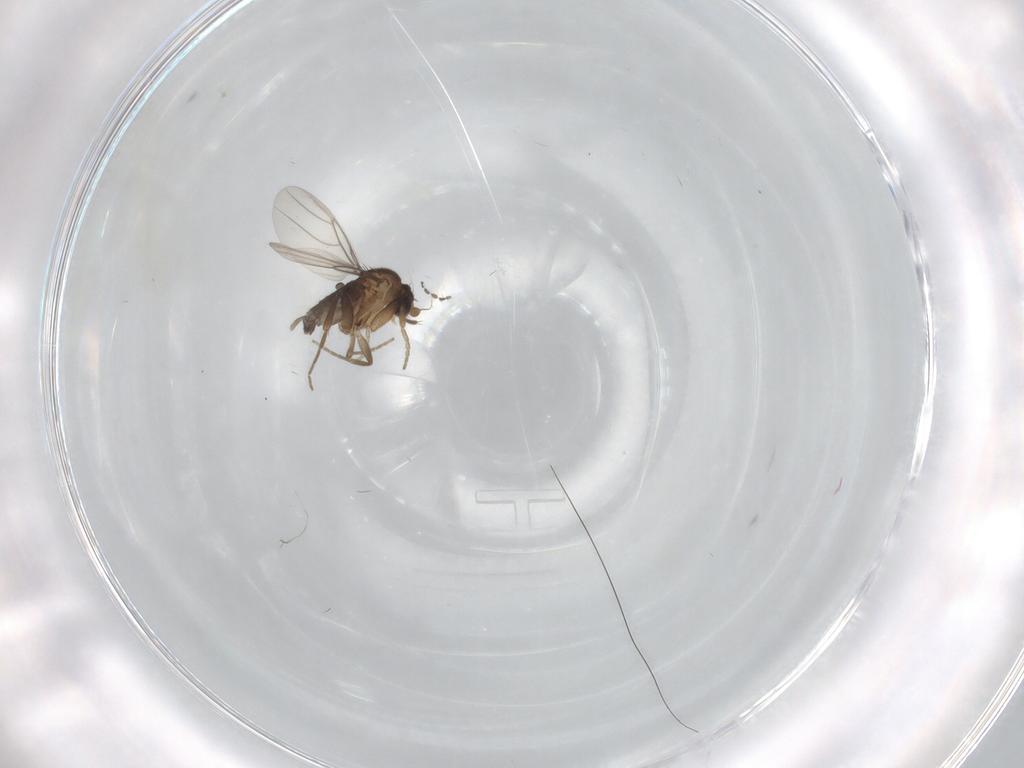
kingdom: Animalia
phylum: Arthropoda
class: Insecta
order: Diptera
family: Phoridae
